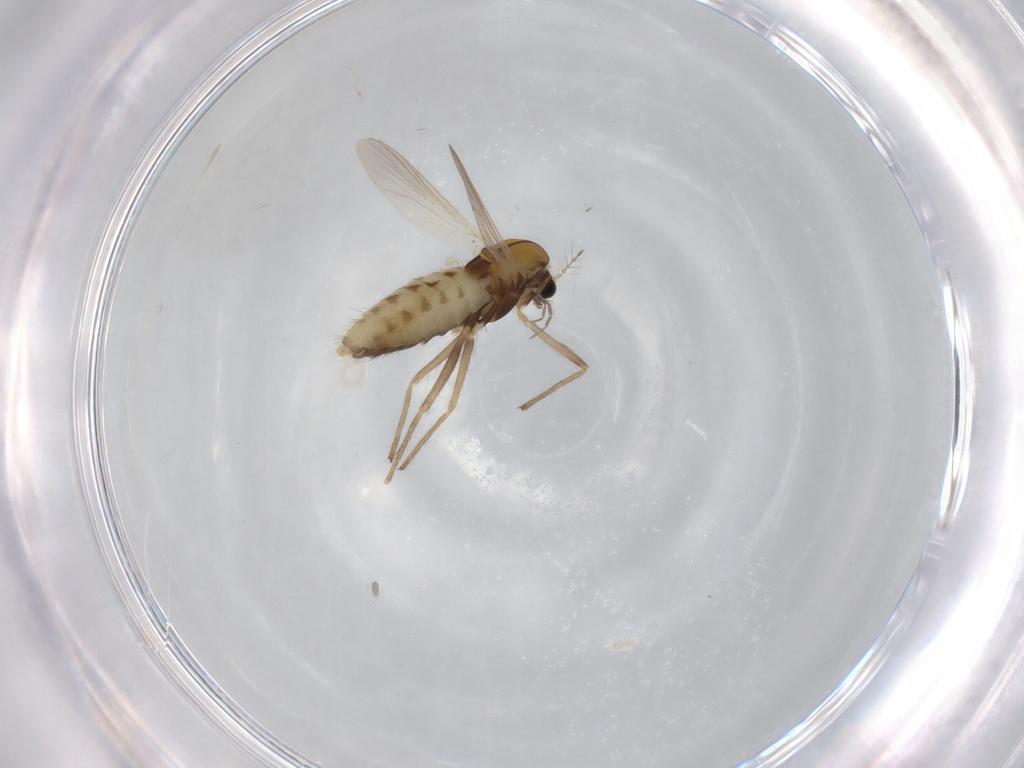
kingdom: Animalia
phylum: Arthropoda
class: Insecta
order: Diptera
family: Chironomidae
